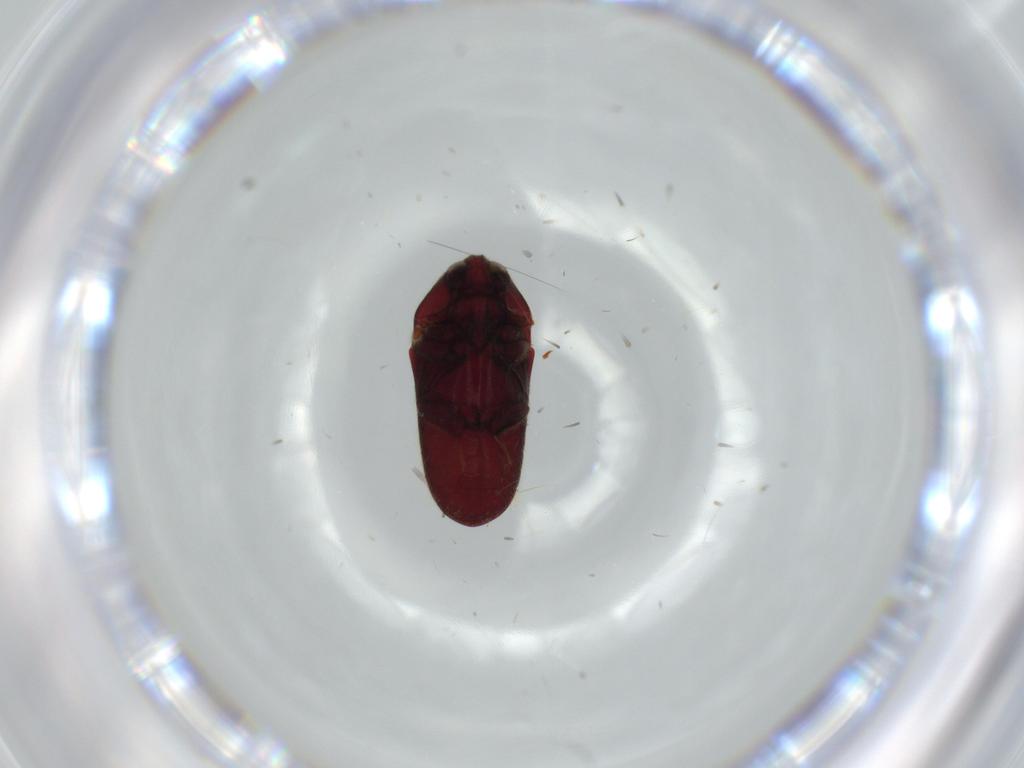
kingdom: Animalia
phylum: Arthropoda
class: Insecta
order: Coleoptera
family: Throscidae
